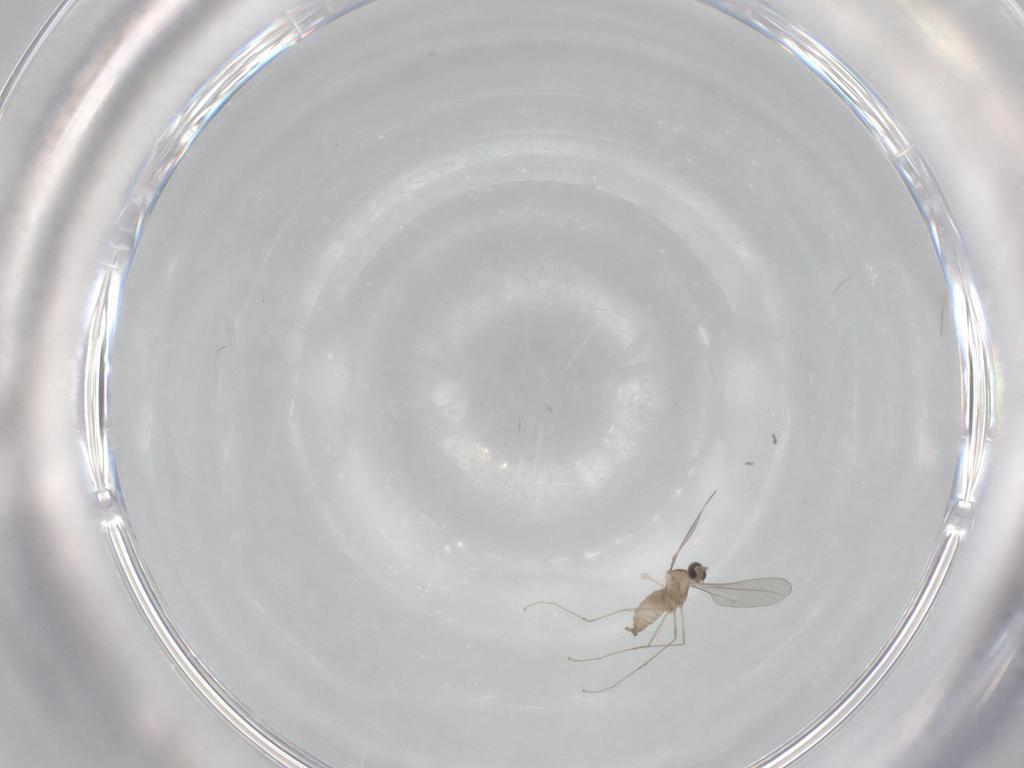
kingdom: Animalia
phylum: Arthropoda
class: Insecta
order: Diptera
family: Cecidomyiidae
